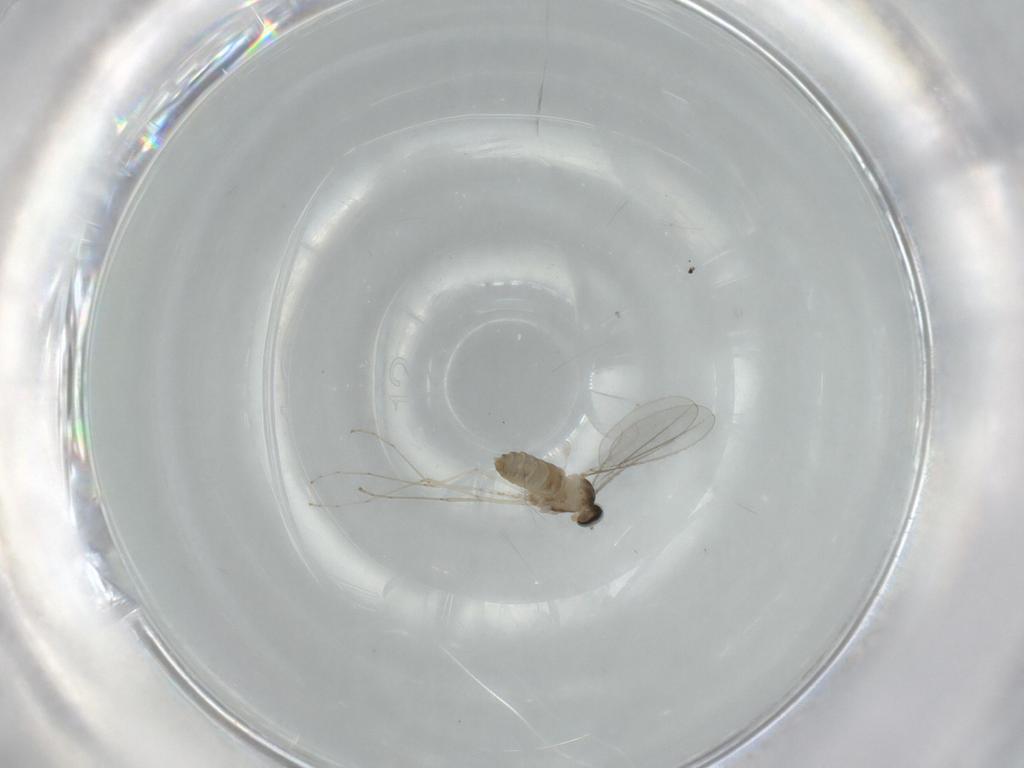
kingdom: Animalia
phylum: Arthropoda
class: Insecta
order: Diptera
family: Cecidomyiidae
